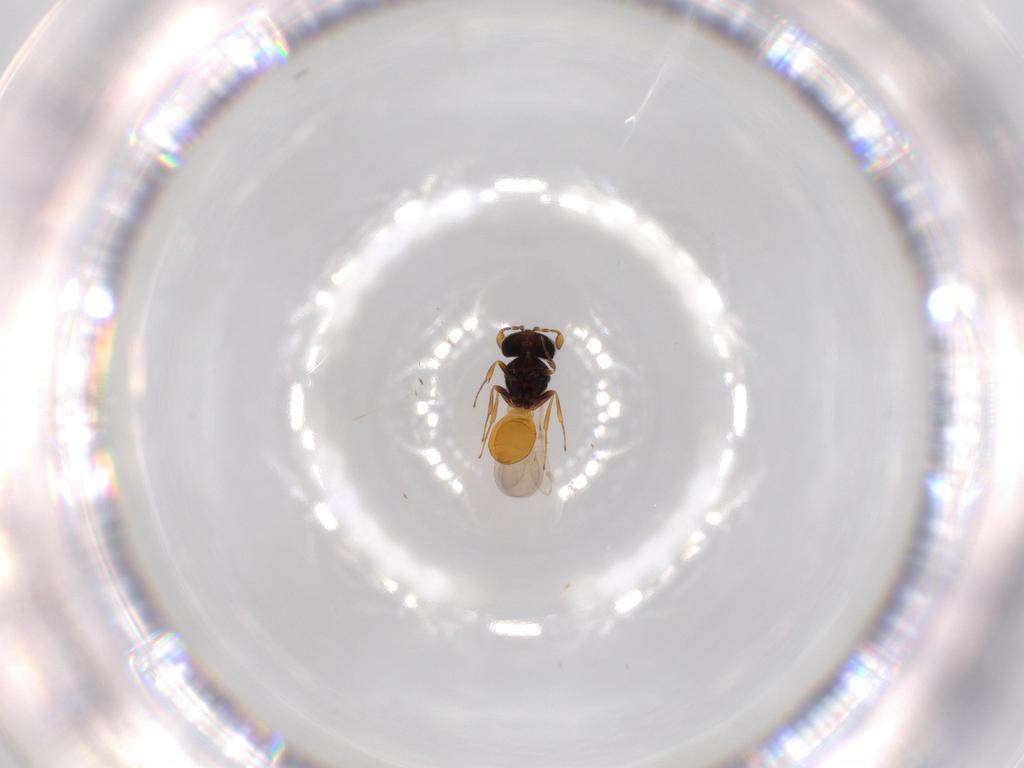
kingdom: Animalia
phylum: Arthropoda
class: Insecta
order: Hymenoptera
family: Scelionidae
